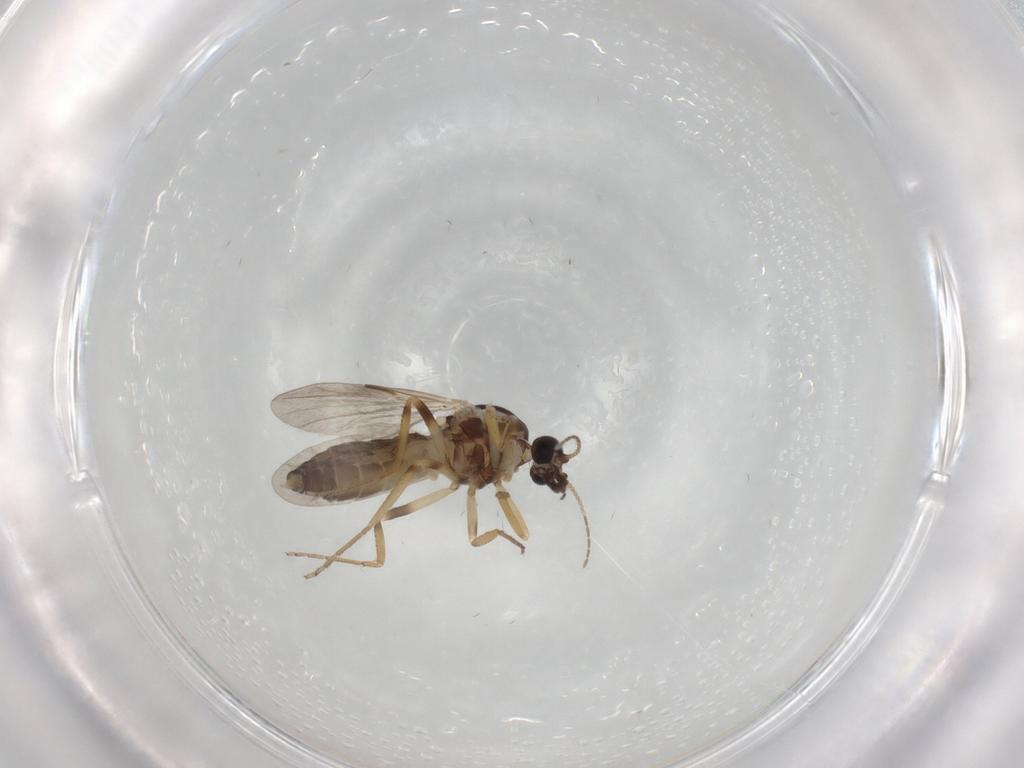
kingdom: Animalia
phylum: Arthropoda
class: Insecta
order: Diptera
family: Ceratopogonidae
